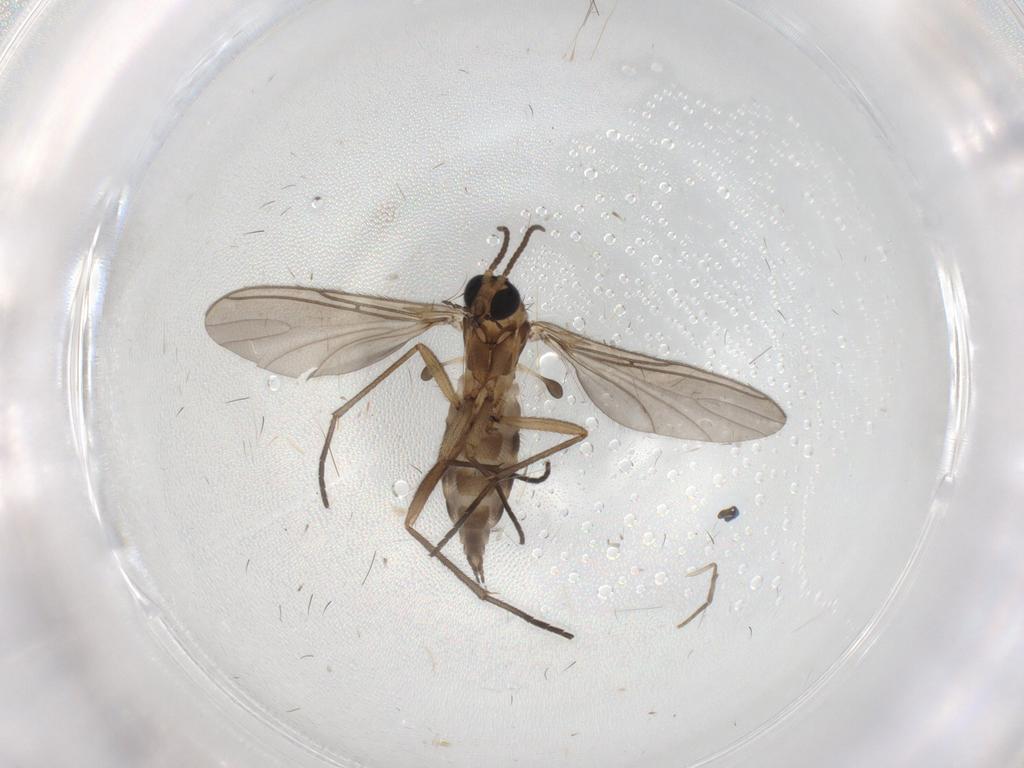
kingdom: Animalia
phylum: Arthropoda
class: Insecta
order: Diptera
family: Sciaridae
